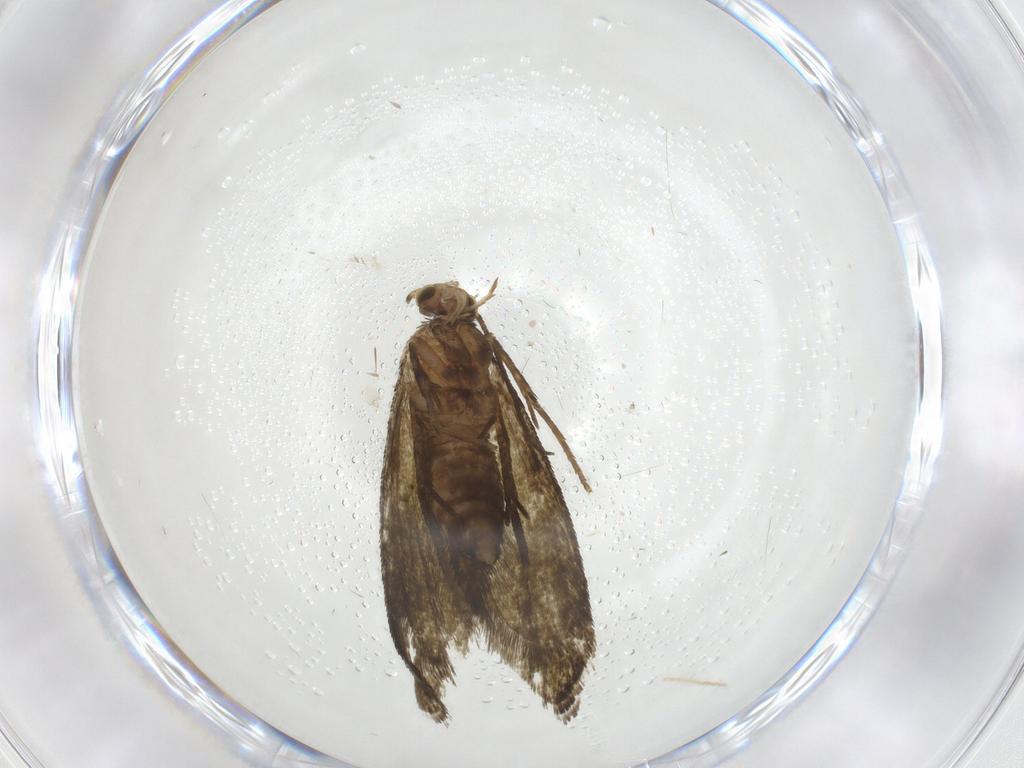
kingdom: Animalia
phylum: Arthropoda
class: Insecta
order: Lepidoptera
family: Tineidae
